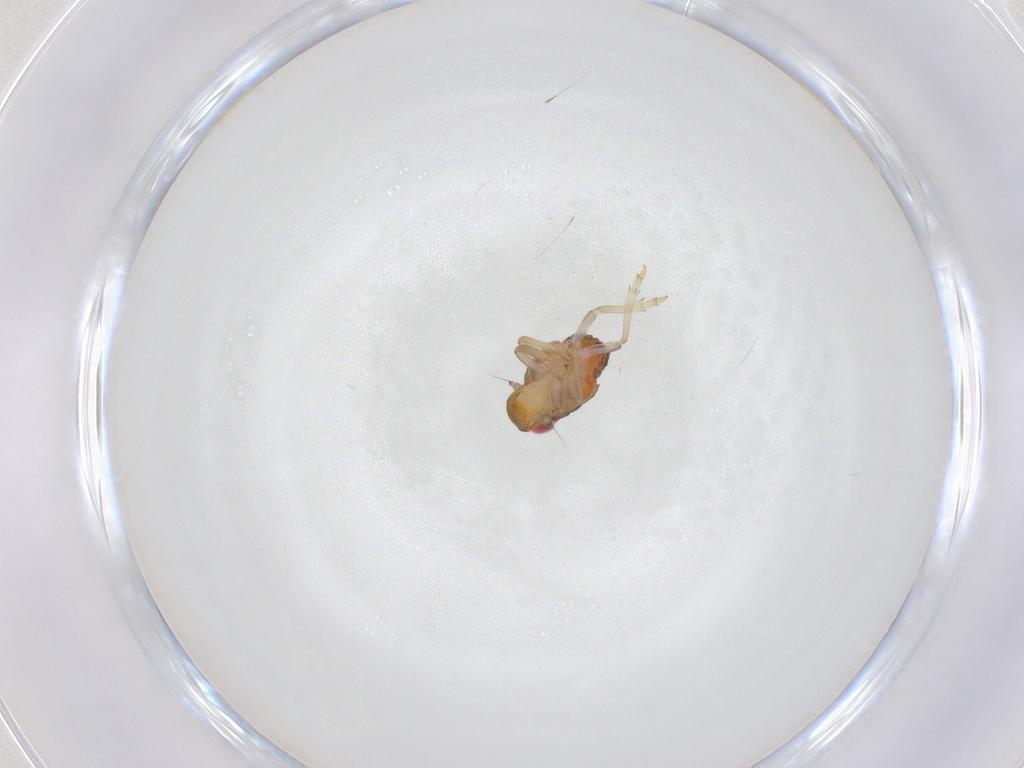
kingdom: Animalia
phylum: Arthropoda
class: Insecta
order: Hemiptera
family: Issidae
